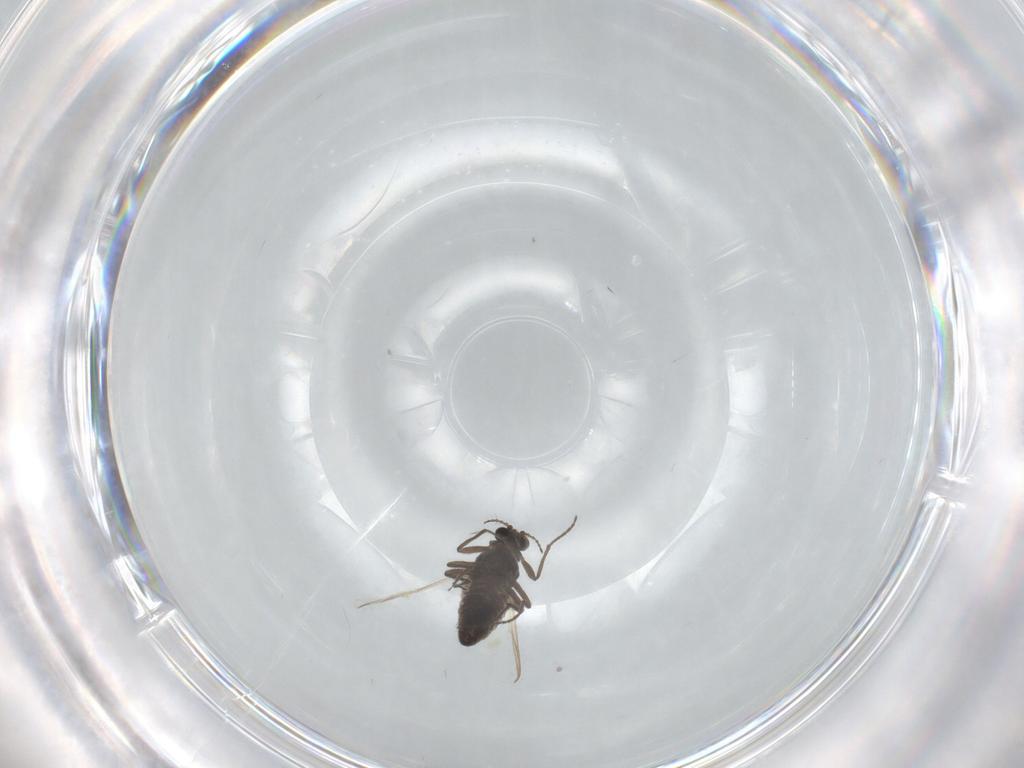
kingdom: Animalia
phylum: Arthropoda
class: Insecta
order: Diptera
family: Chironomidae
